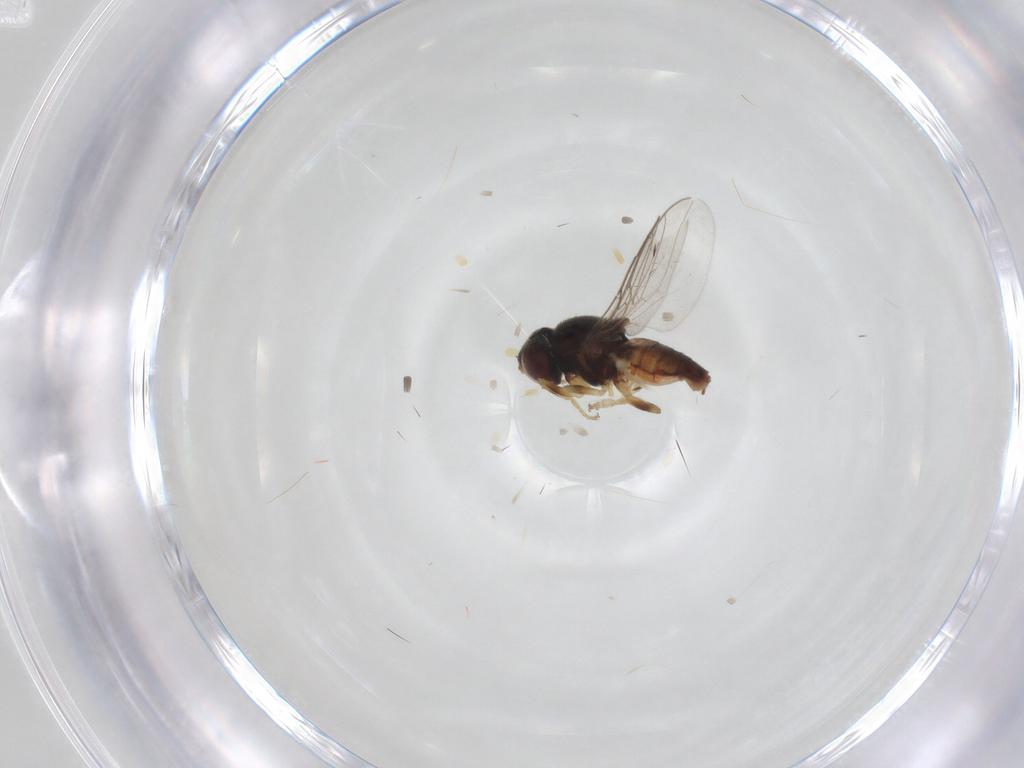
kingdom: Animalia
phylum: Arthropoda
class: Insecta
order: Diptera
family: Chloropidae
